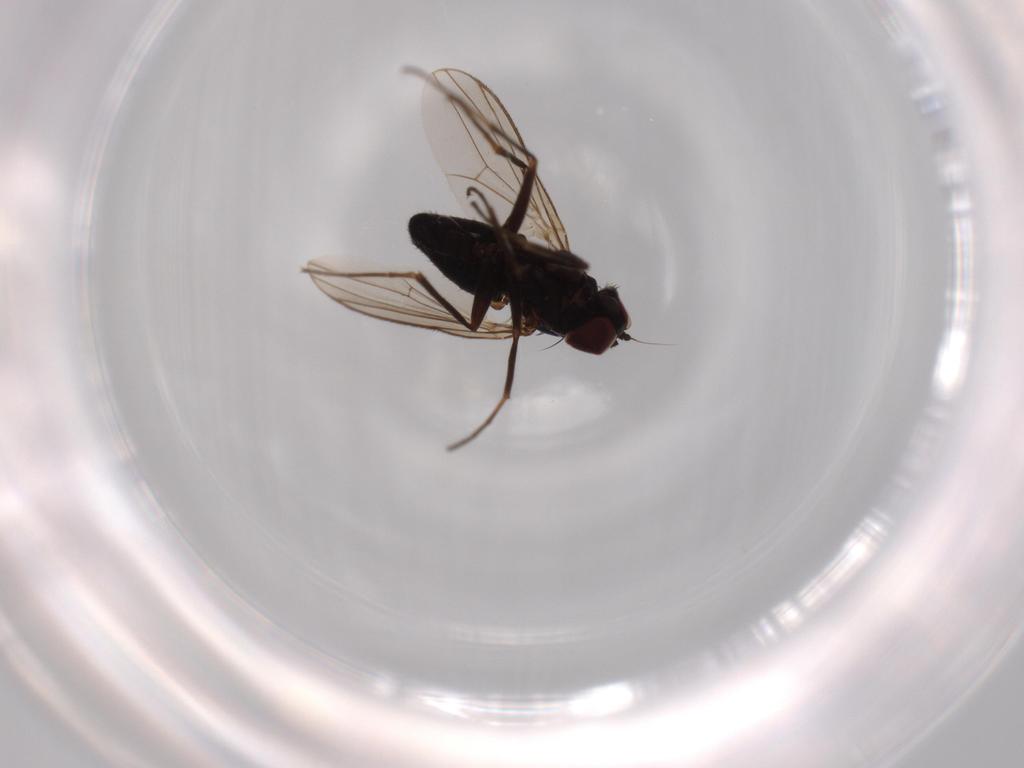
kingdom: Animalia
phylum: Arthropoda
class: Insecta
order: Diptera
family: Dolichopodidae
